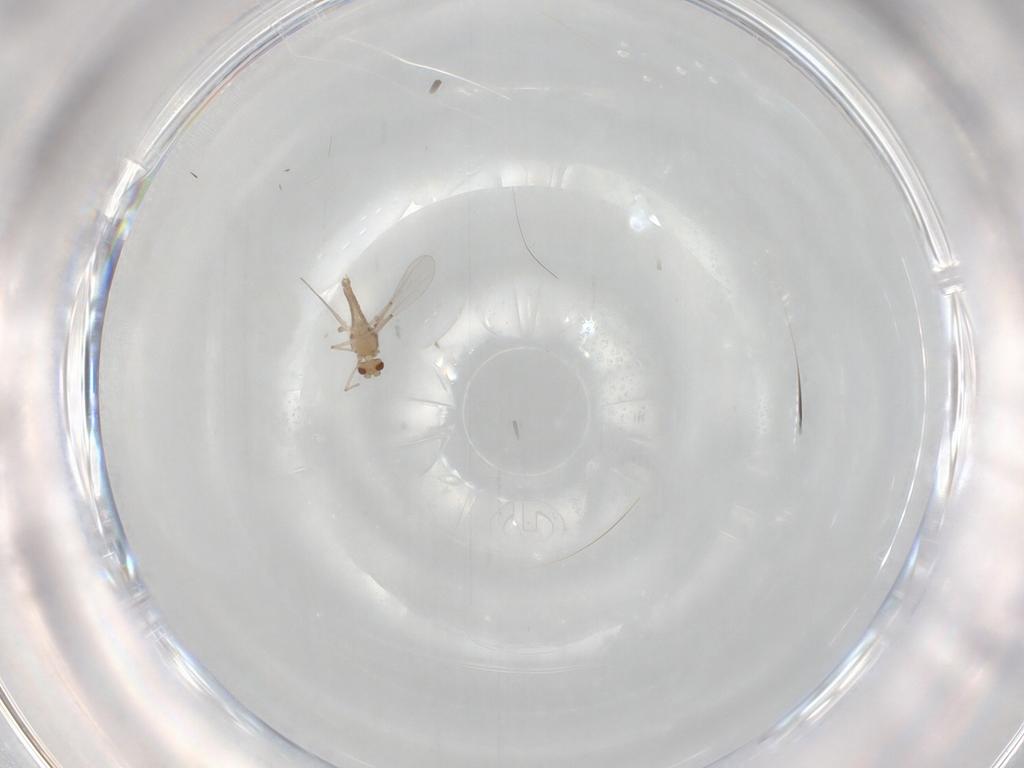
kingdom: Animalia
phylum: Arthropoda
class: Insecta
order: Diptera
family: Chironomidae
